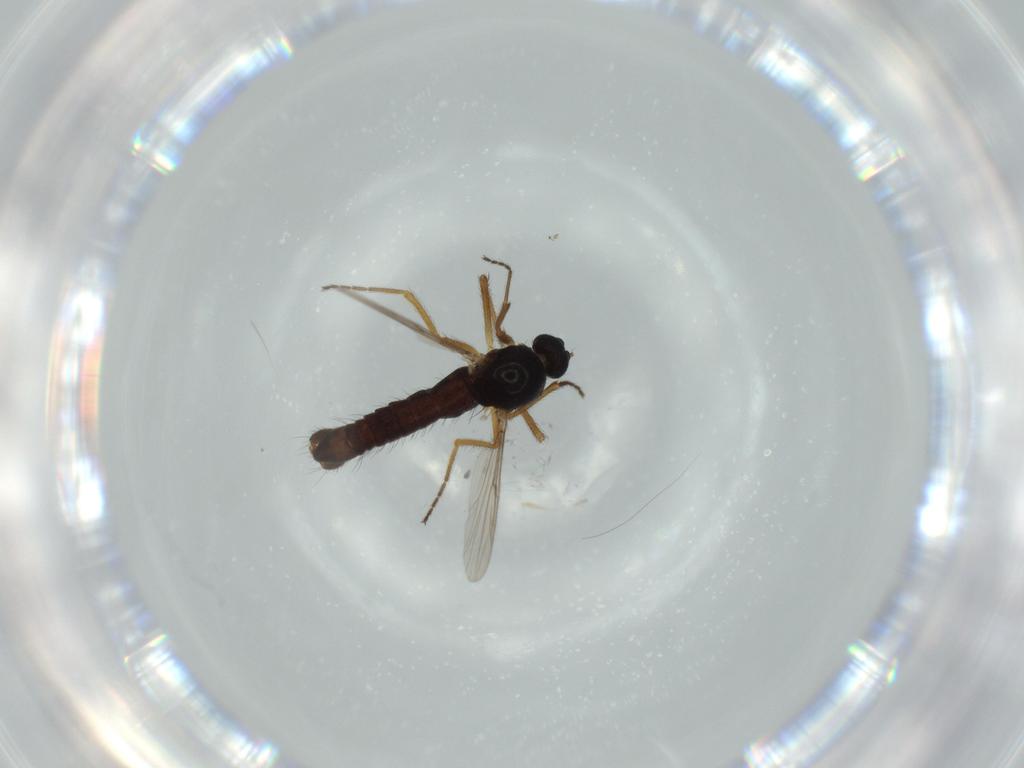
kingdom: Animalia
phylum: Arthropoda
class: Insecta
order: Diptera
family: Ceratopogonidae
